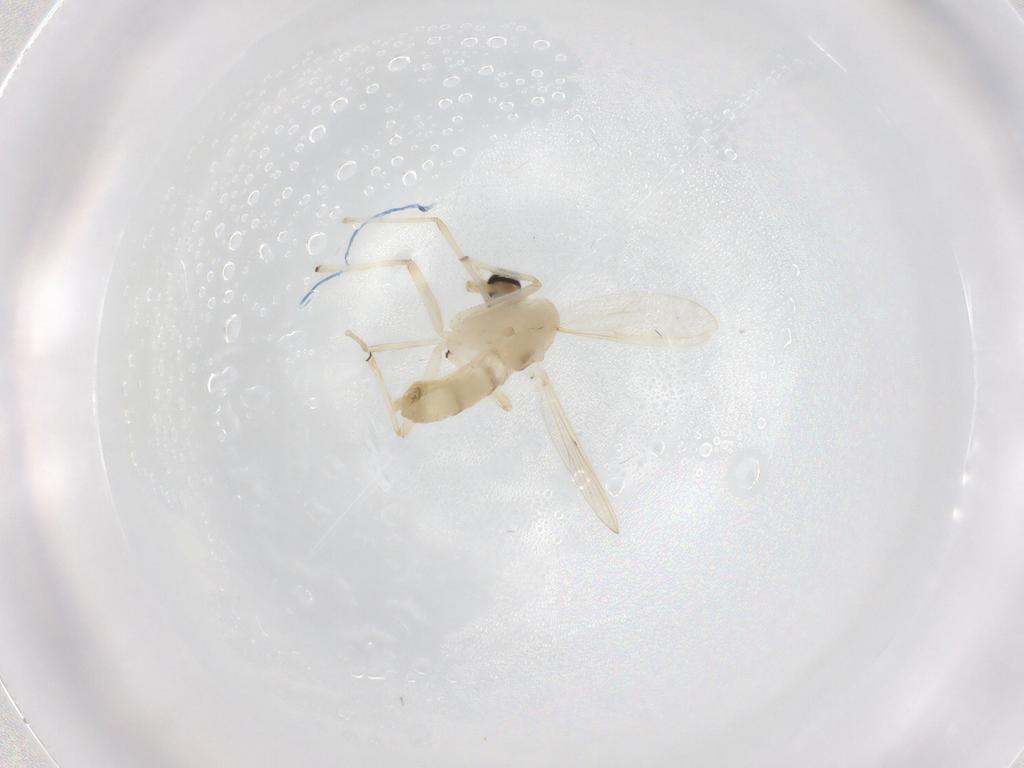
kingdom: Animalia
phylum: Arthropoda
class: Insecta
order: Diptera
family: Chironomidae
